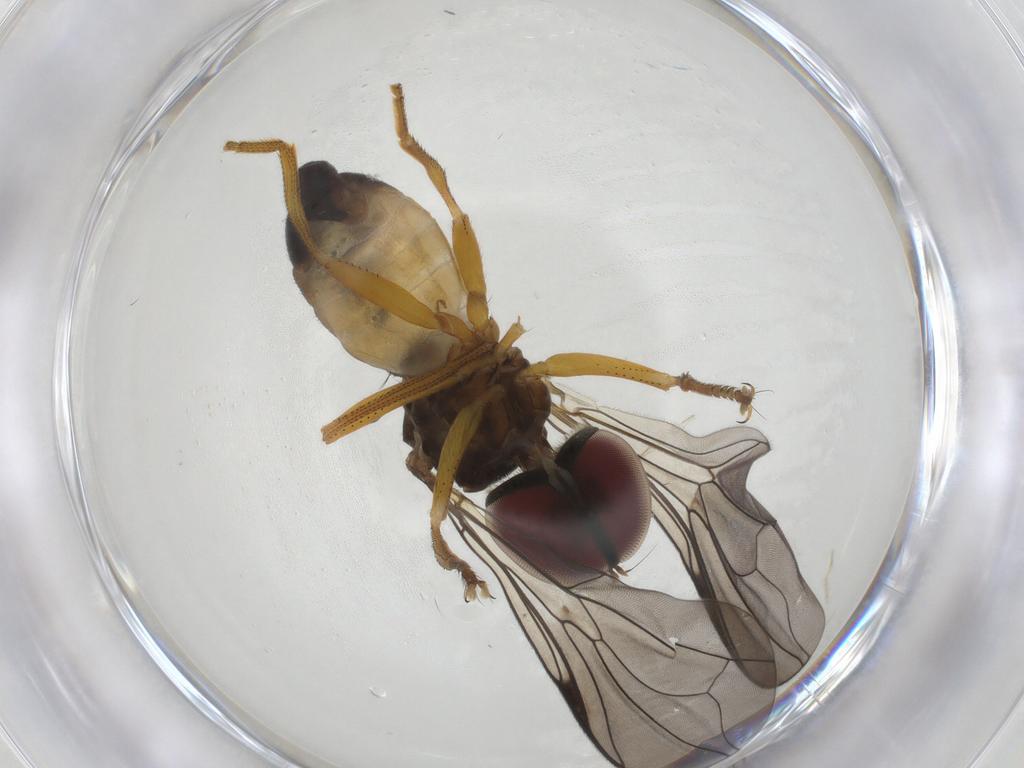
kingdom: Animalia
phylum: Arthropoda
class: Insecta
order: Diptera
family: Pipunculidae
